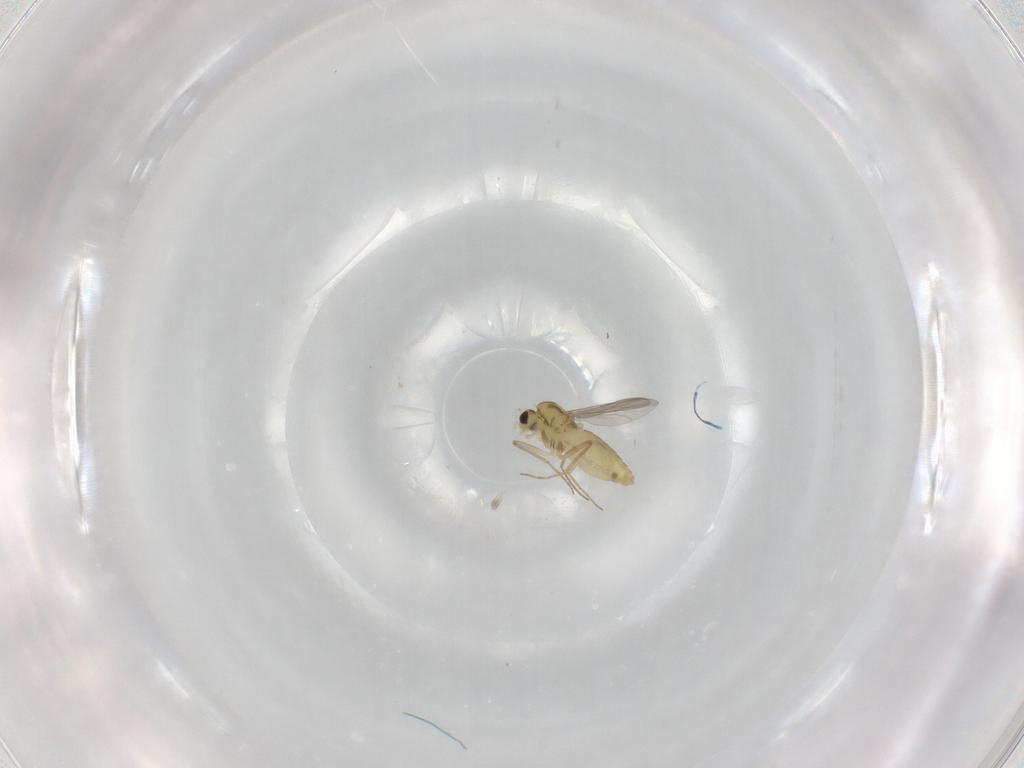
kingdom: Animalia
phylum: Arthropoda
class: Insecta
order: Diptera
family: Chironomidae
